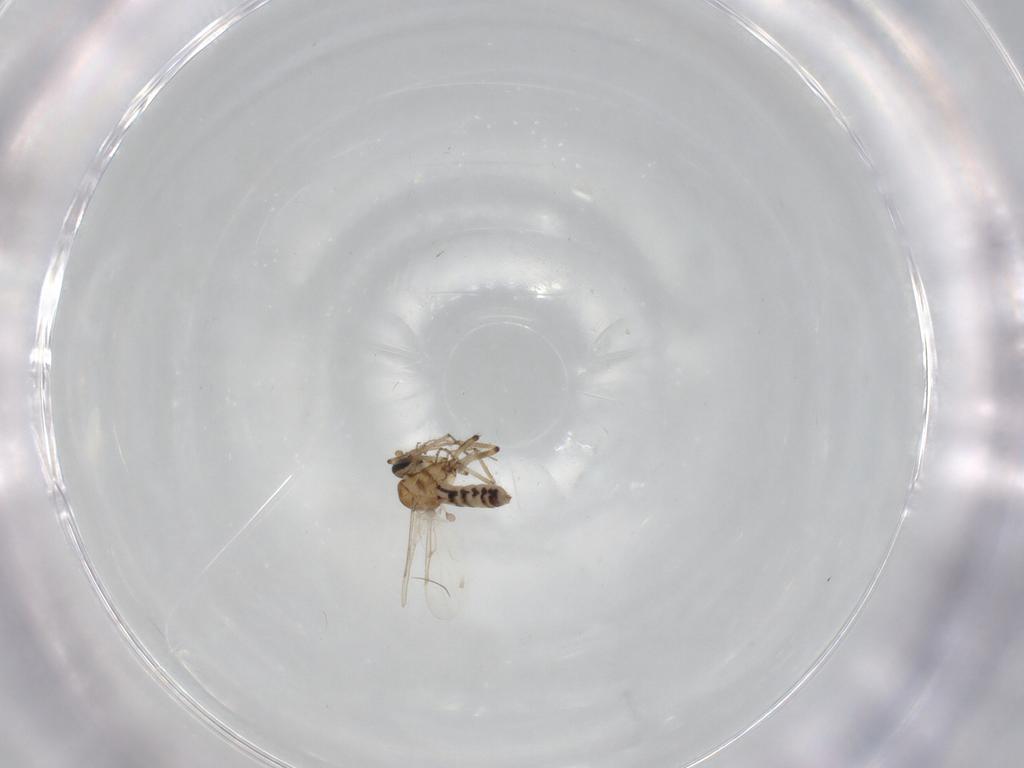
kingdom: Animalia
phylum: Arthropoda
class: Insecta
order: Diptera
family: Ceratopogonidae
